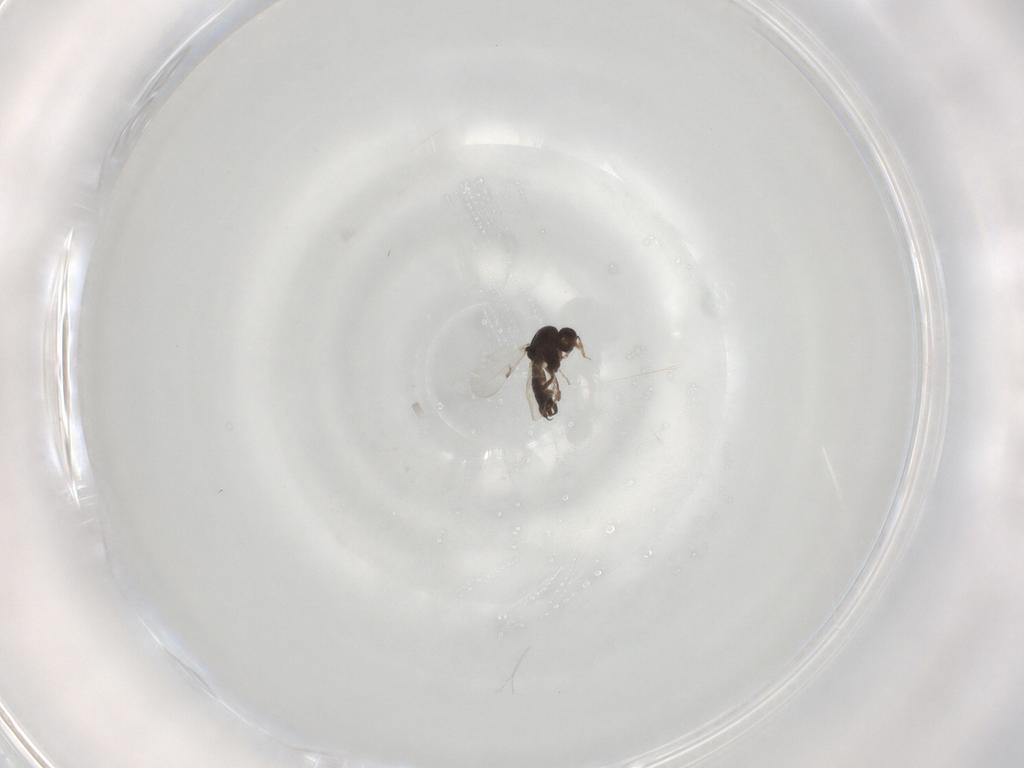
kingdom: Animalia
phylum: Arthropoda
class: Insecta
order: Diptera
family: Ceratopogonidae
